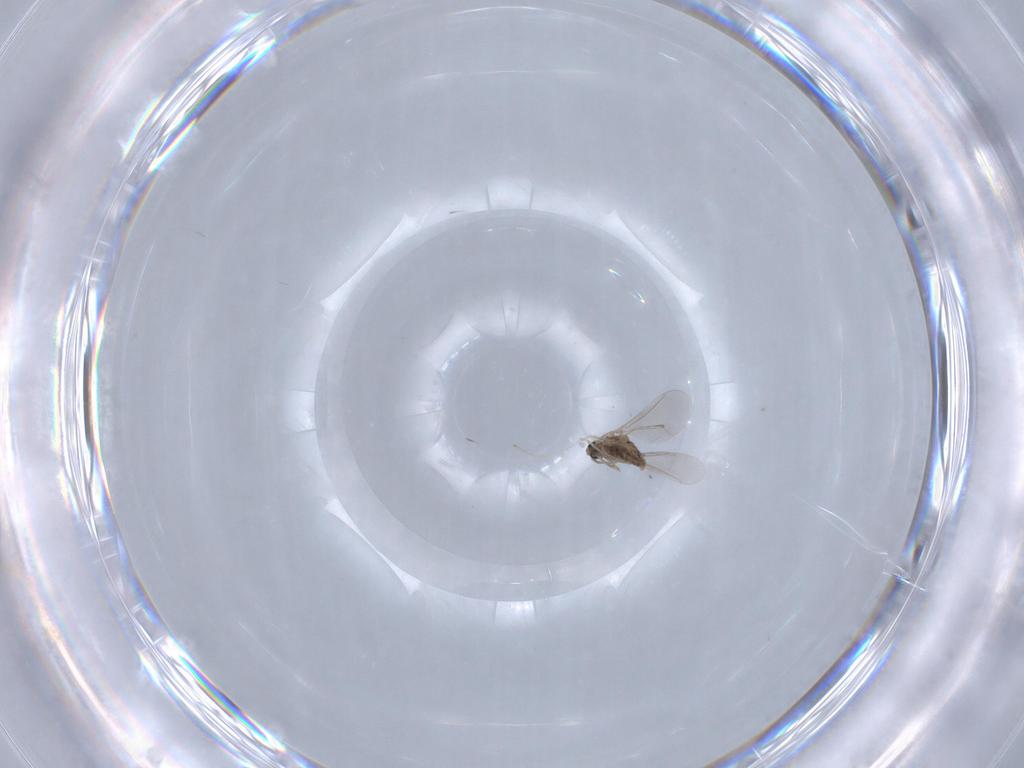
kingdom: Animalia
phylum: Arthropoda
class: Insecta
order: Diptera
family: Cecidomyiidae
